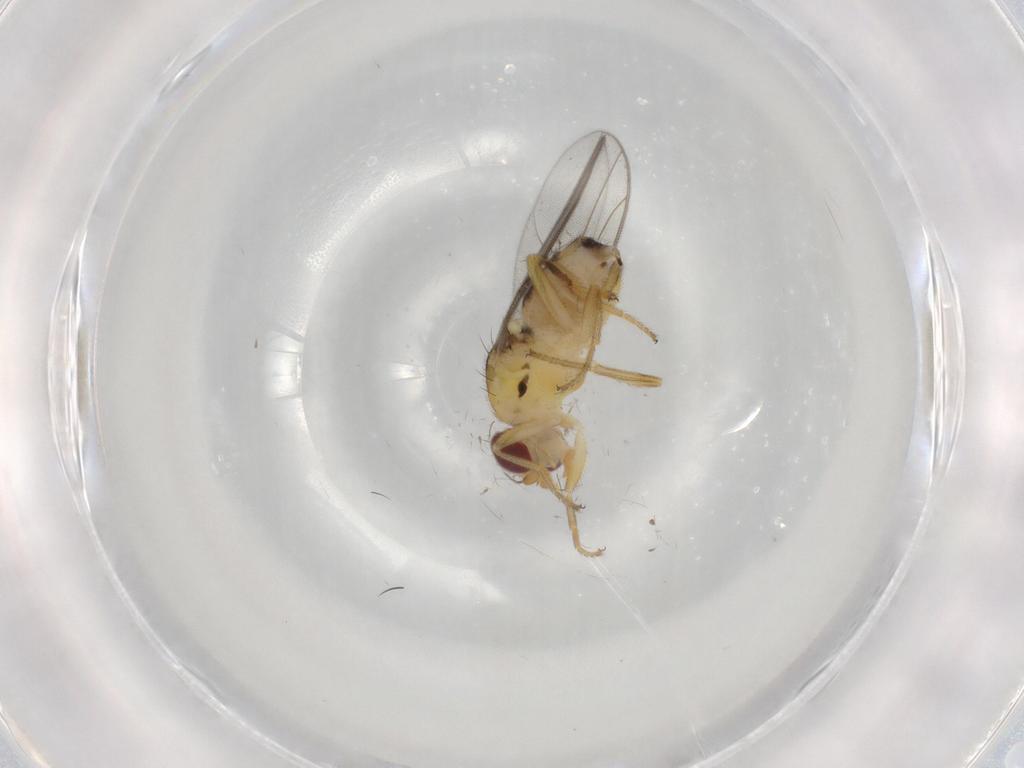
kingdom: Animalia
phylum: Arthropoda
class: Insecta
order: Diptera
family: Chloropidae
